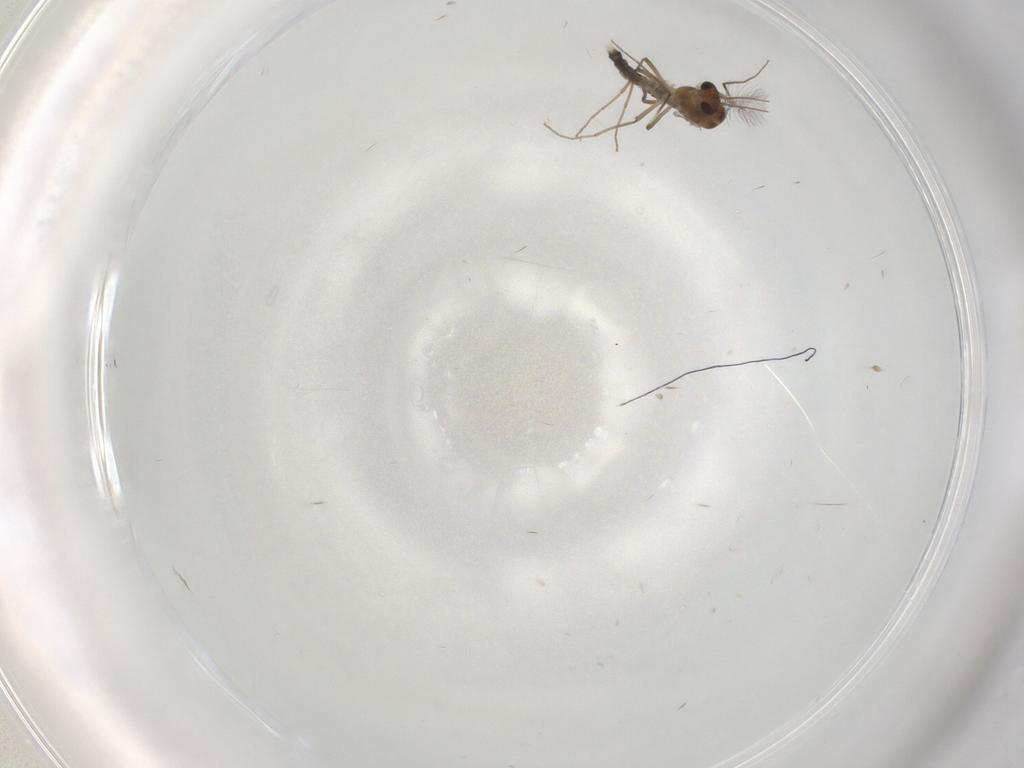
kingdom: Animalia
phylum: Arthropoda
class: Insecta
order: Diptera
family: Chironomidae
